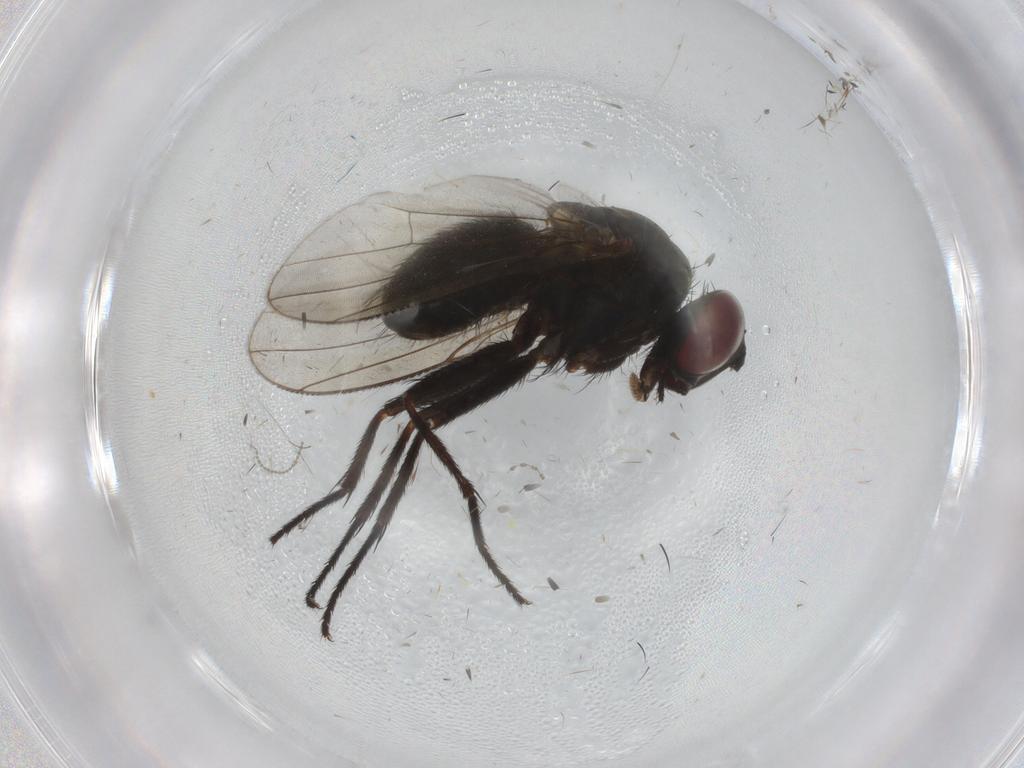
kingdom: Animalia
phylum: Arthropoda
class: Insecta
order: Diptera
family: Muscidae
